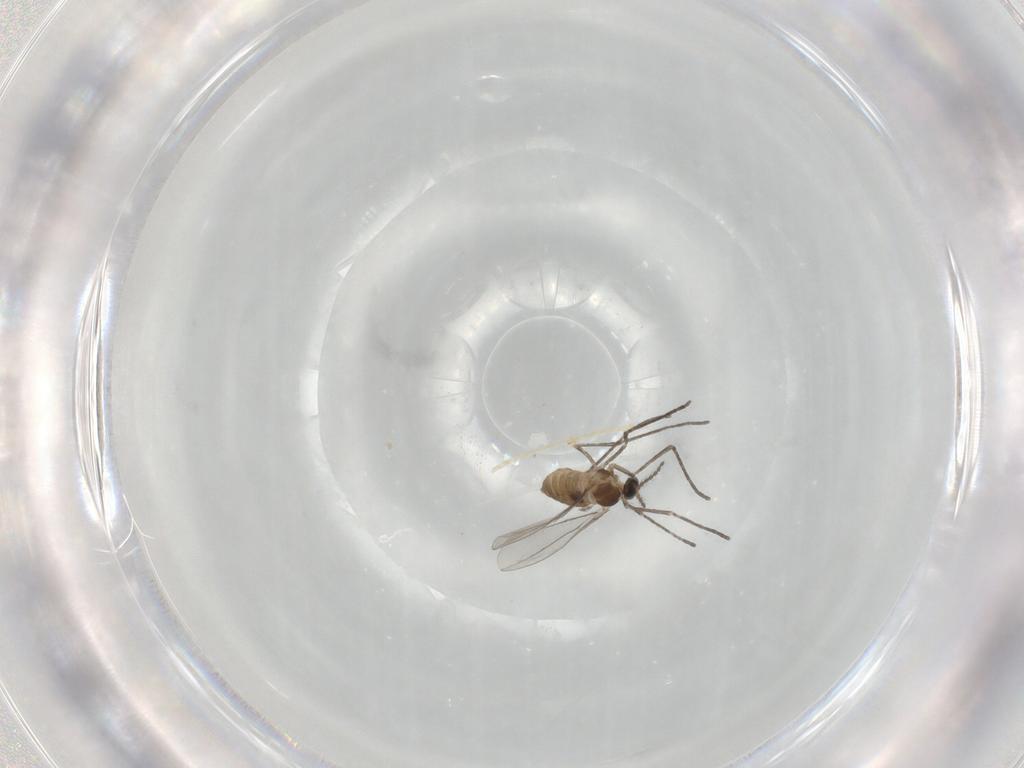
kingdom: Animalia
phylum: Arthropoda
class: Insecta
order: Diptera
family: Cecidomyiidae
